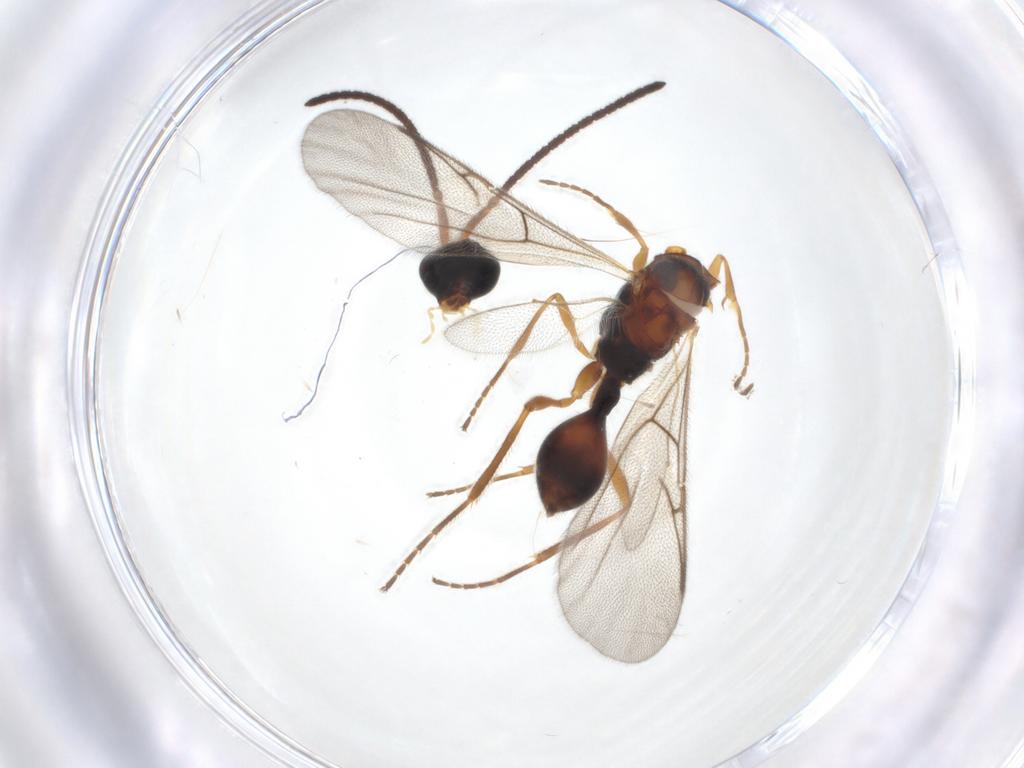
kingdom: Animalia
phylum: Arthropoda
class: Insecta
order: Hymenoptera
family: Diapriidae
